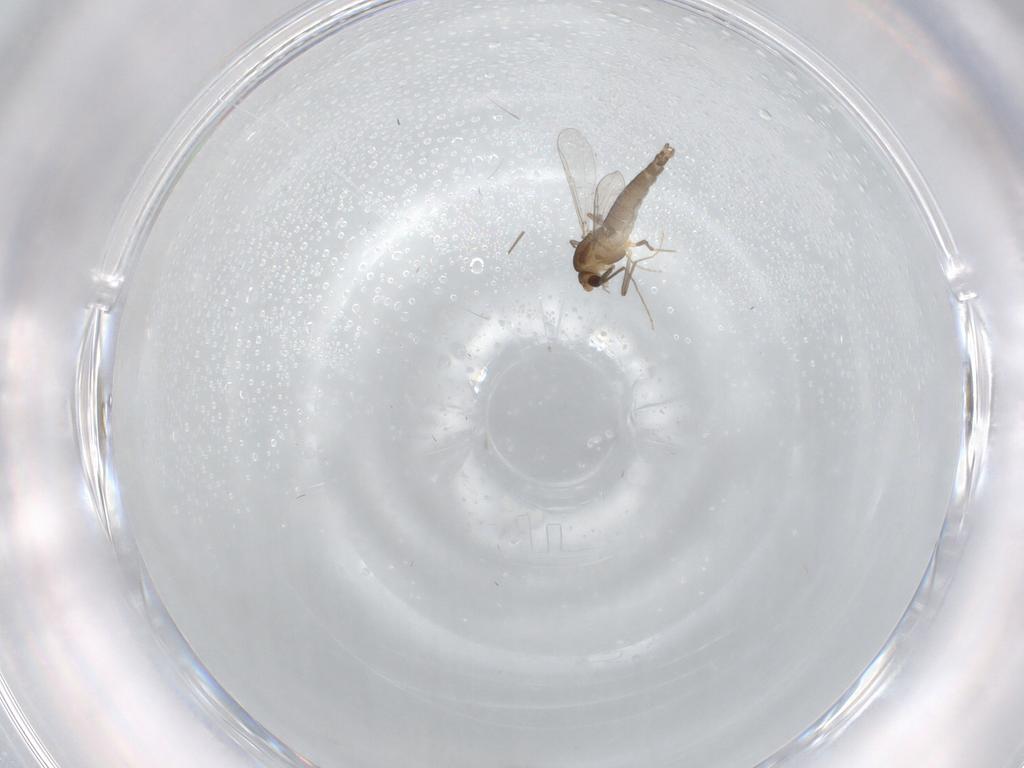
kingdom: Animalia
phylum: Arthropoda
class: Insecta
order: Diptera
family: Chironomidae
